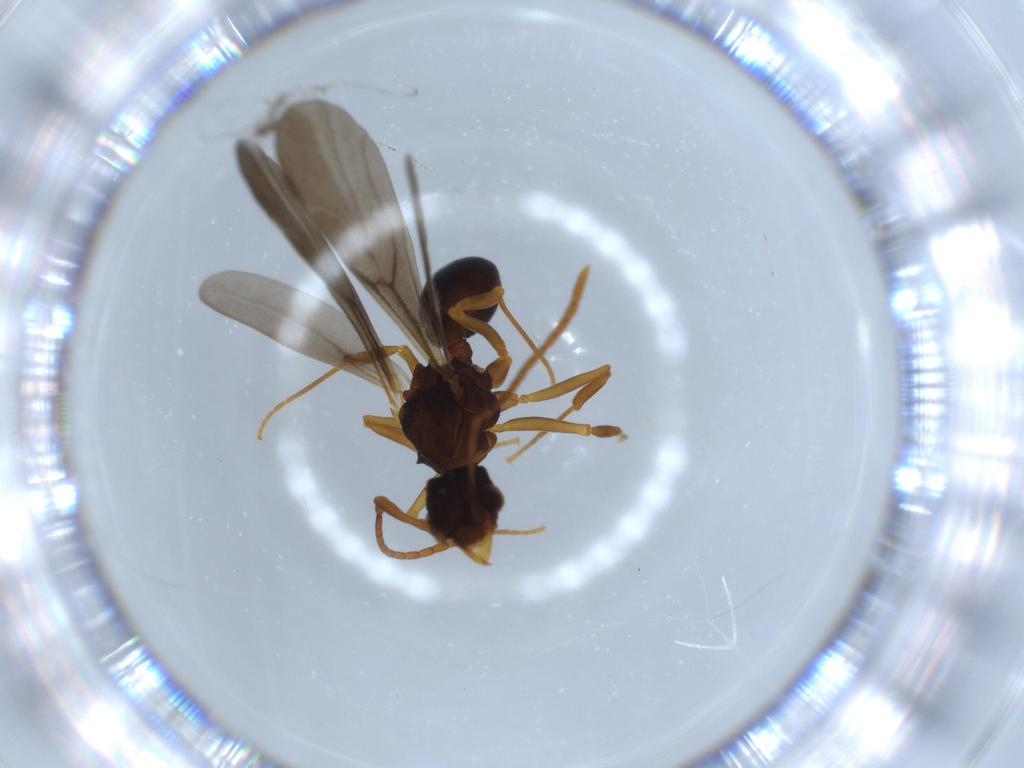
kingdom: Animalia
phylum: Arthropoda
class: Insecta
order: Hymenoptera
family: Formicidae
